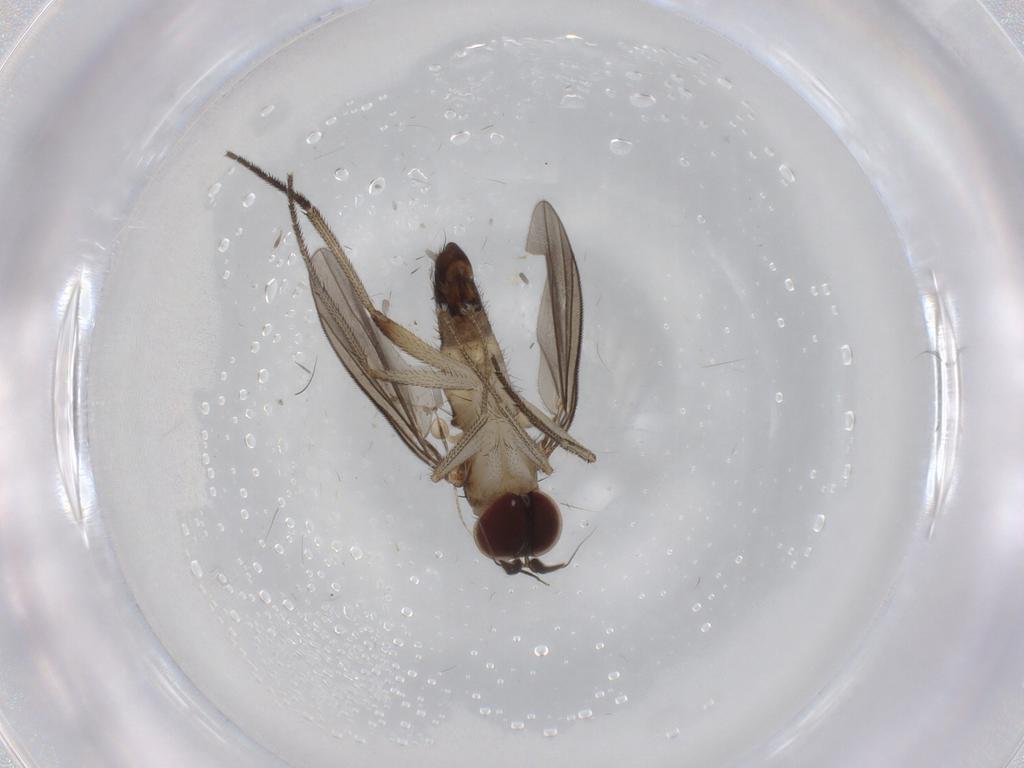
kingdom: Animalia
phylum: Arthropoda
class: Insecta
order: Diptera
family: Dolichopodidae
